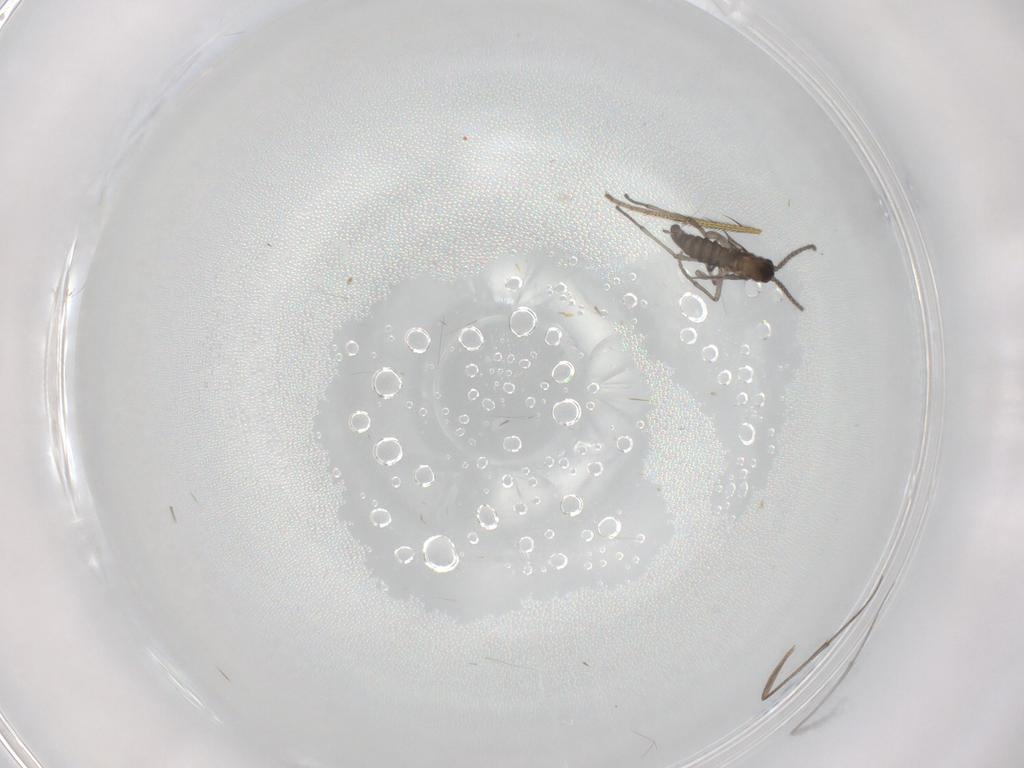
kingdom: Animalia
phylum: Arthropoda
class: Insecta
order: Diptera
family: Sciaridae
